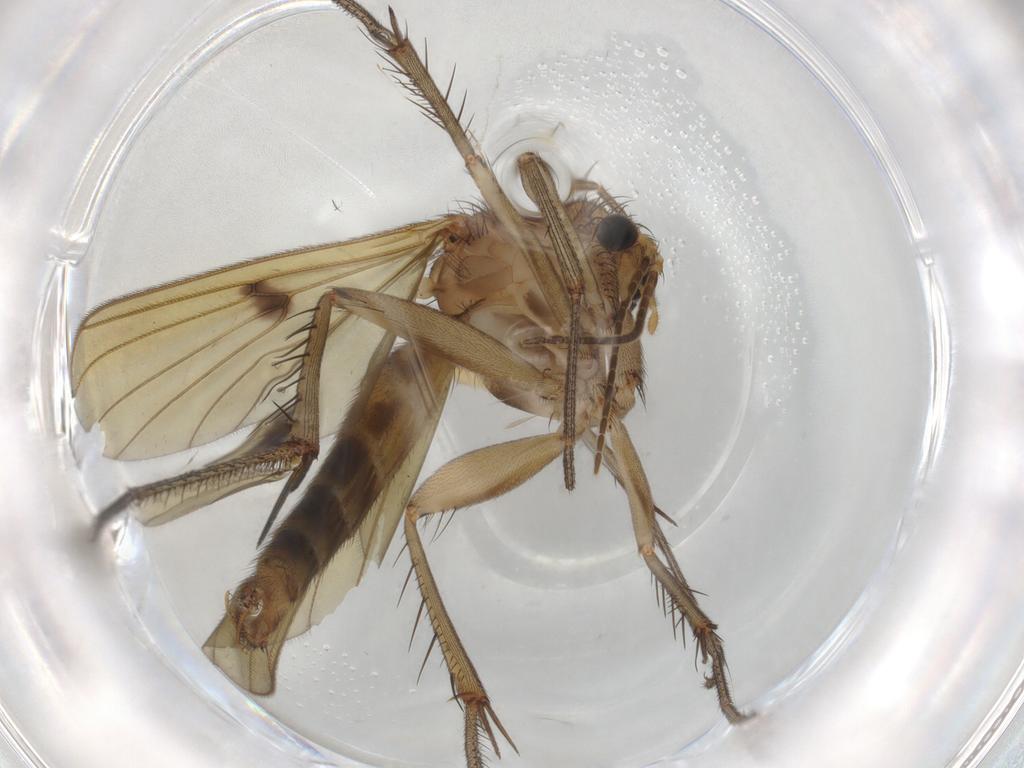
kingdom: Animalia
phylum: Arthropoda
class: Insecta
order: Diptera
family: Mycetophilidae
